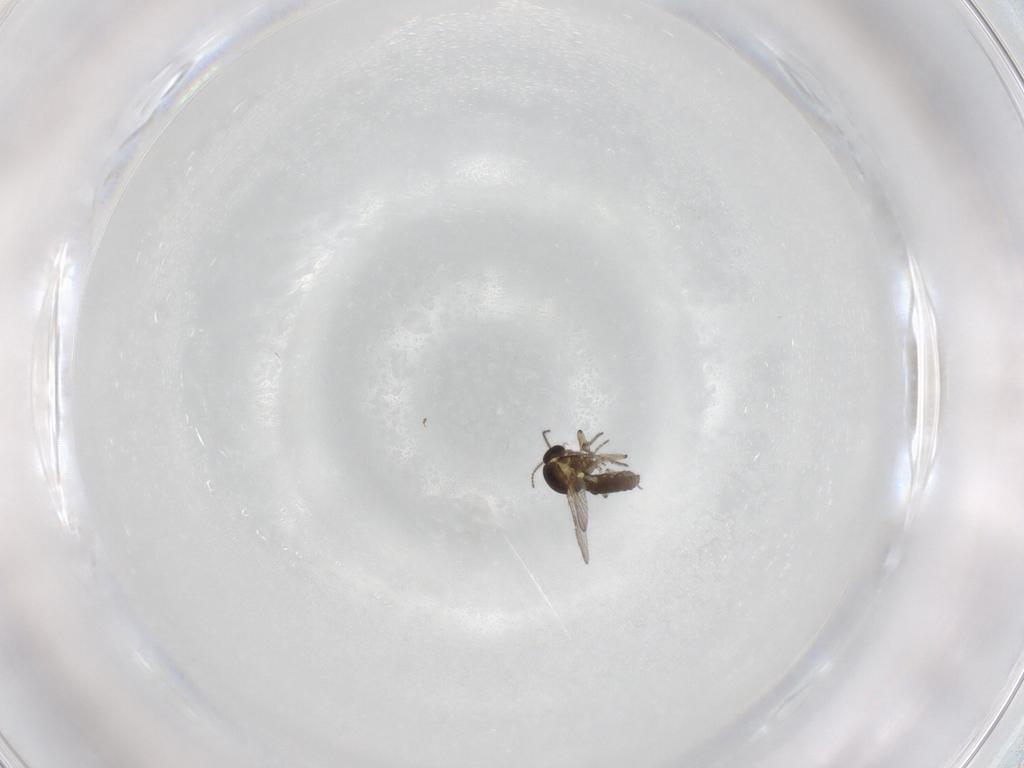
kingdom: Animalia
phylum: Arthropoda
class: Insecta
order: Diptera
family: Ceratopogonidae
